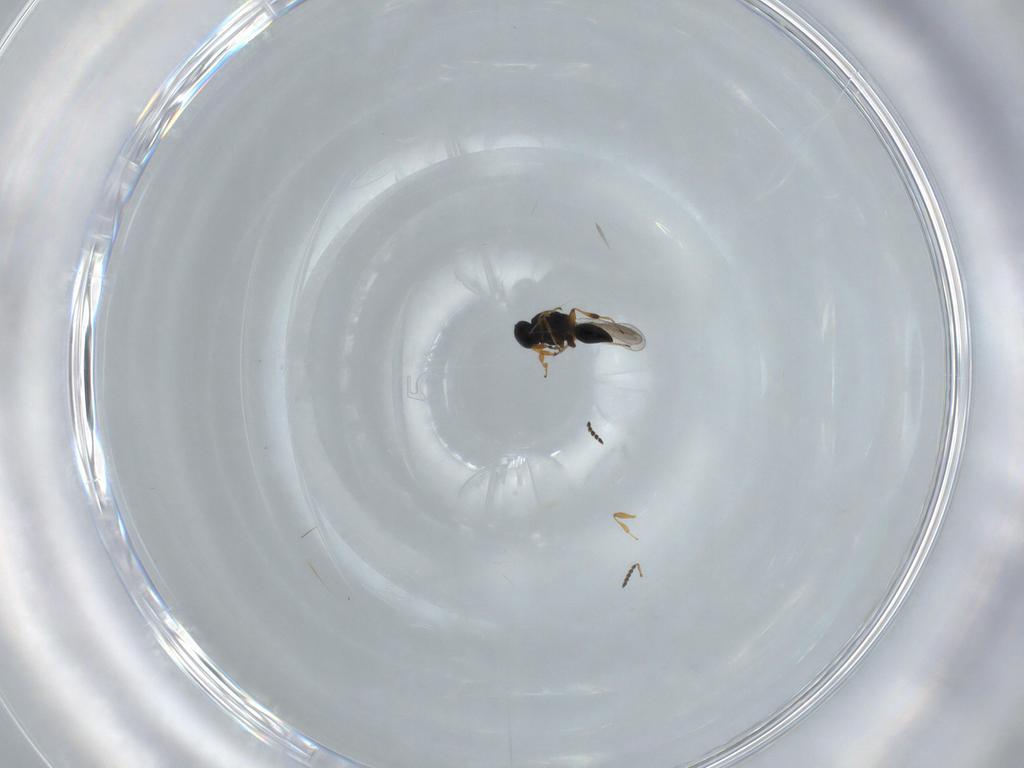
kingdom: Animalia
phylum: Arthropoda
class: Insecta
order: Hymenoptera
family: Platygastridae
